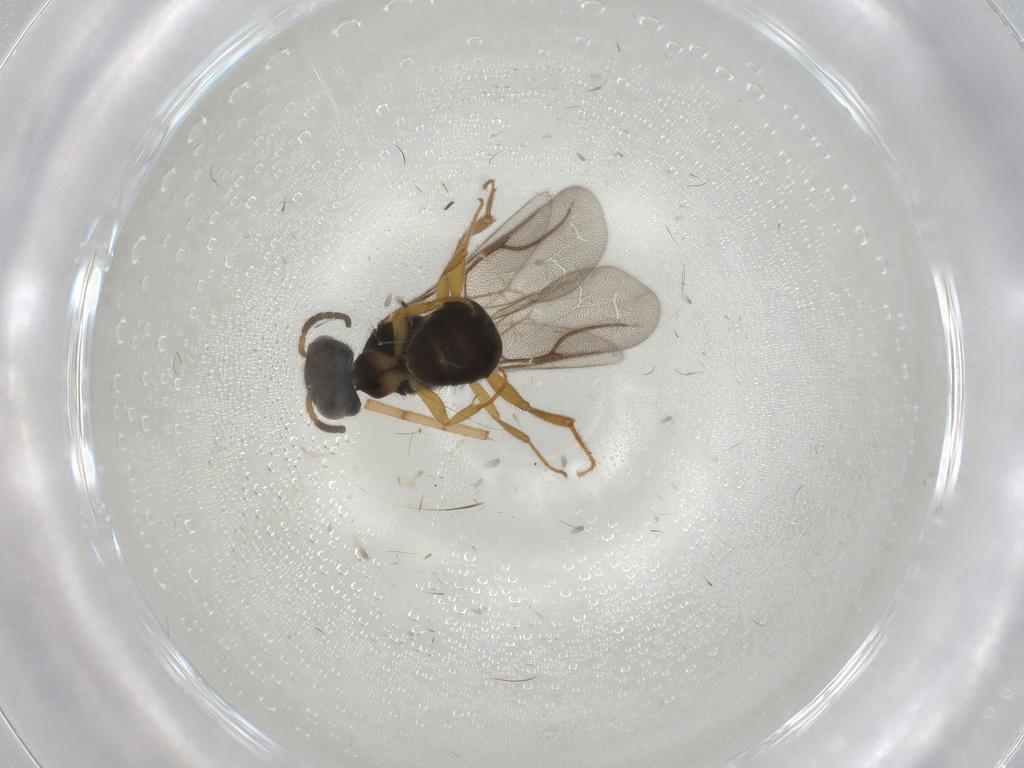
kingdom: Animalia
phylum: Arthropoda
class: Insecta
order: Hymenoptera
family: Bethylidae
